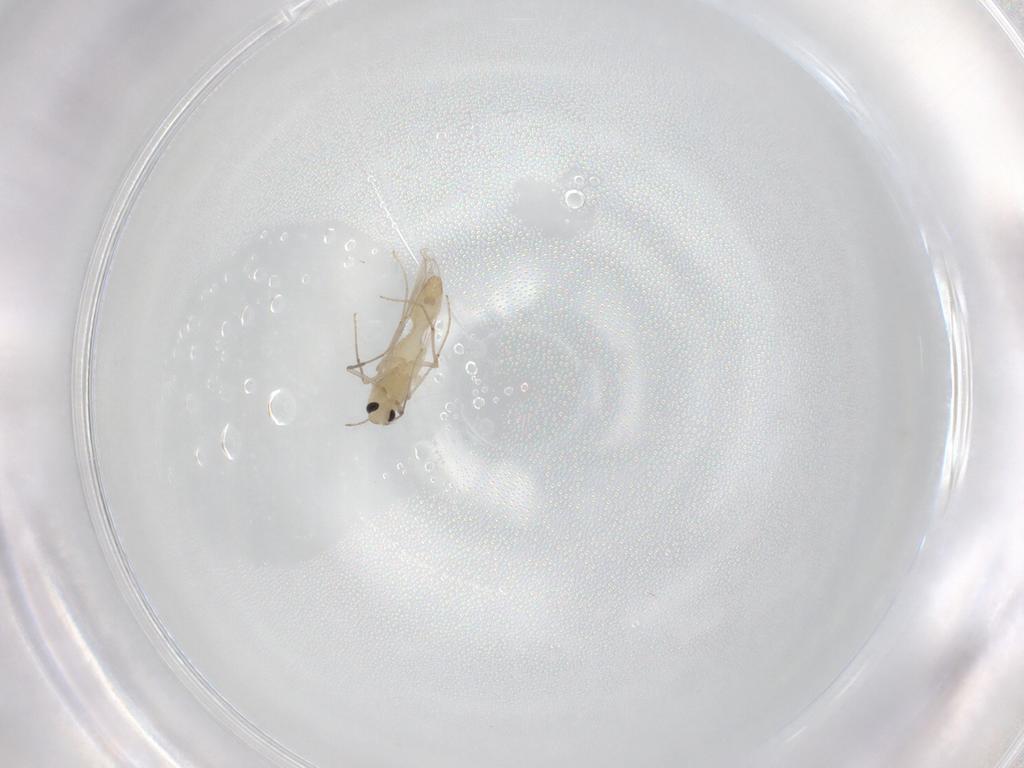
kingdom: Animalia
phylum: Arthropoda
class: Insecta
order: Diptera
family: Chironomidae
